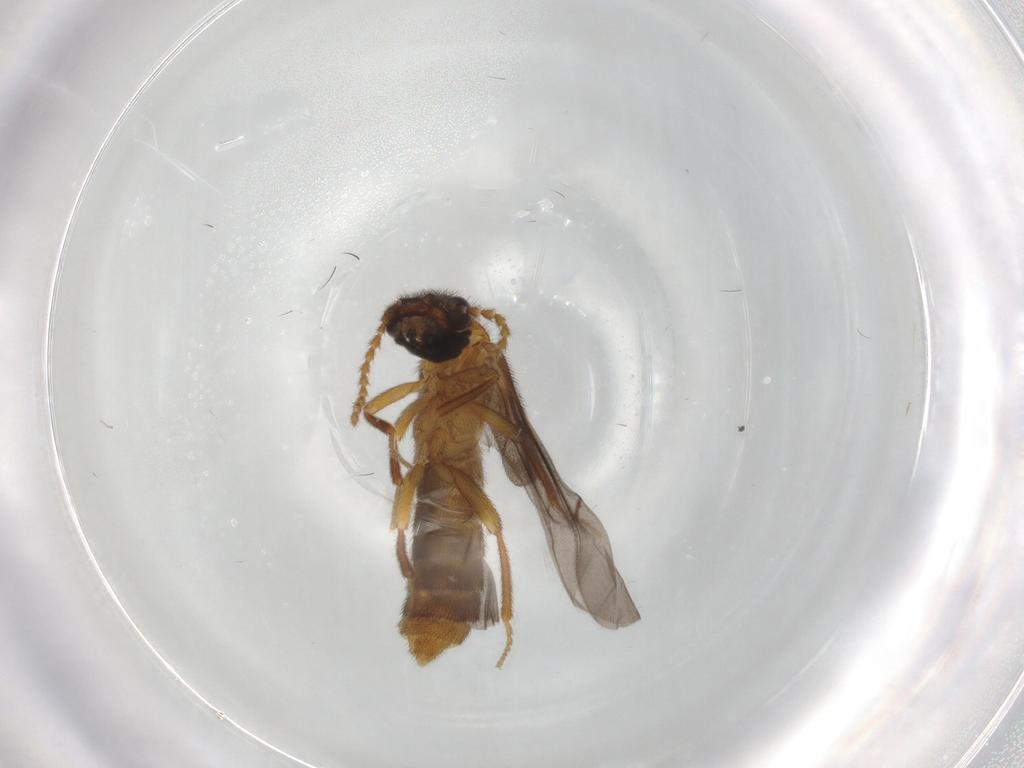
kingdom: Animalia
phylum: Arthropoda
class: Insecta
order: Coleoptera
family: Omethidae
